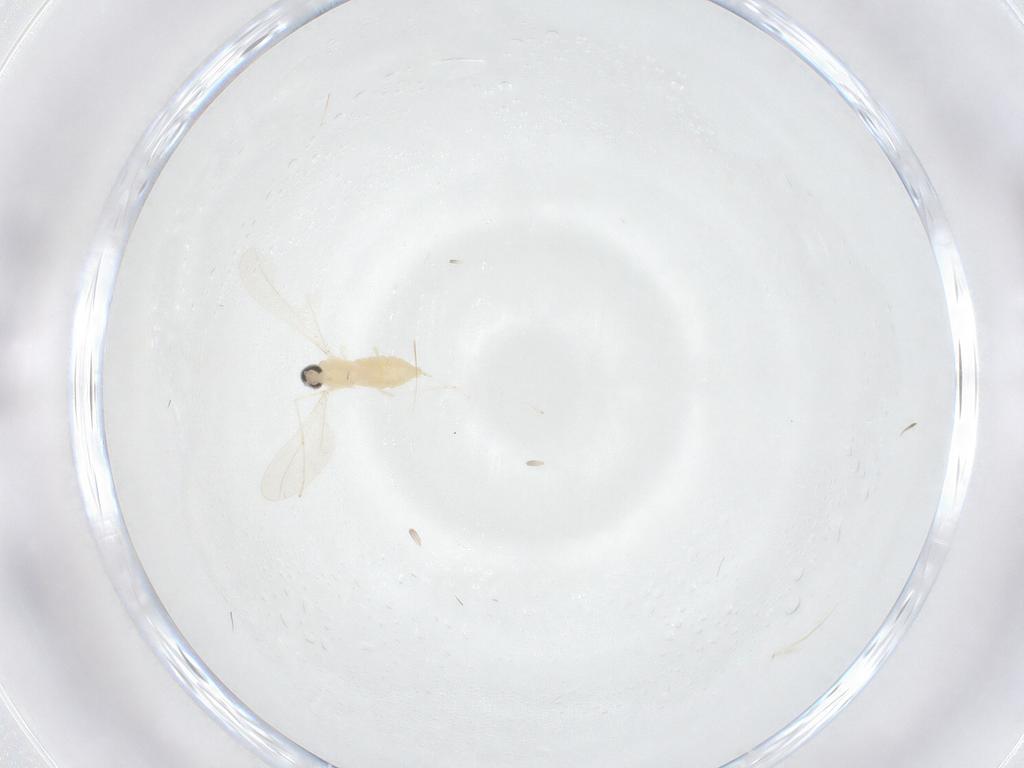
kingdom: Animalia
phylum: Arthropoda
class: Insecta
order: Diptera
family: Cecidomyiidae
